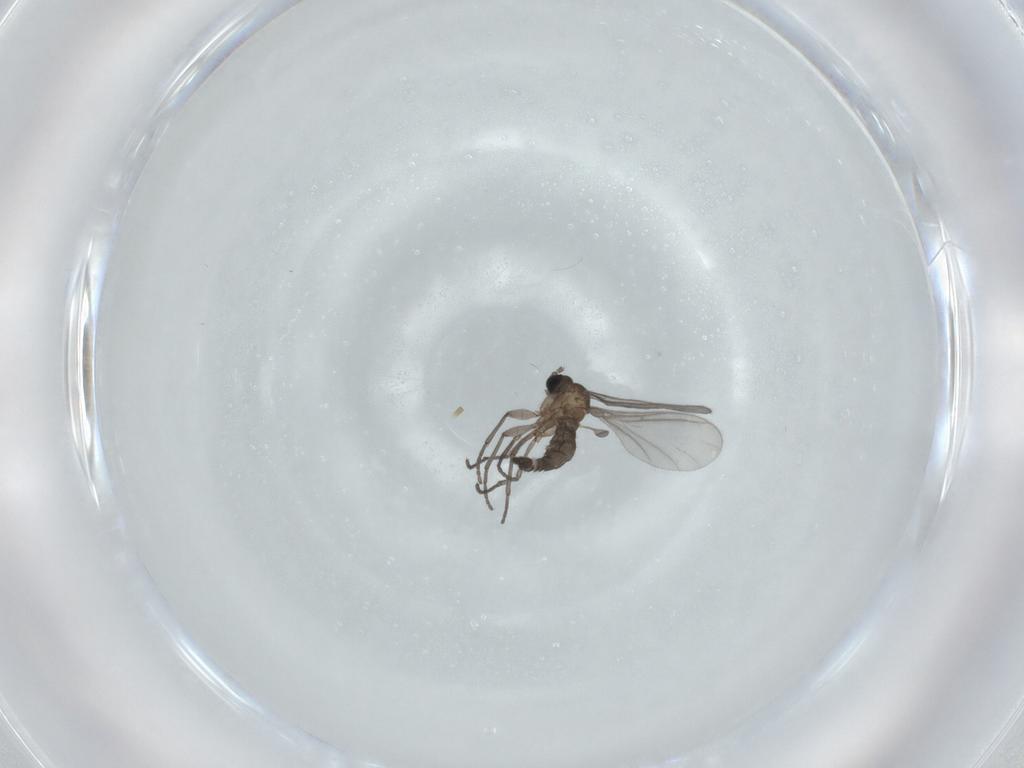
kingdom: Animalia
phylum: Arthropoda
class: Insecta
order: Diptera
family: Sciaridae
